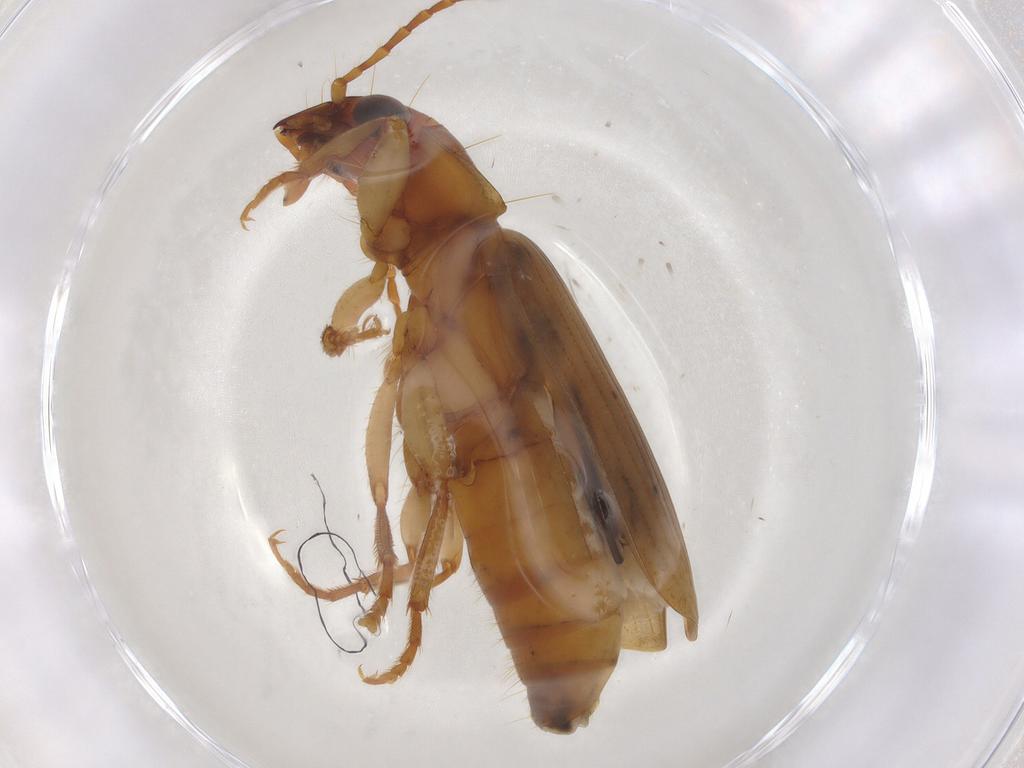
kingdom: Animalia
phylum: Arthropoda
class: Insecta
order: Coleoptera
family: Carabidae
